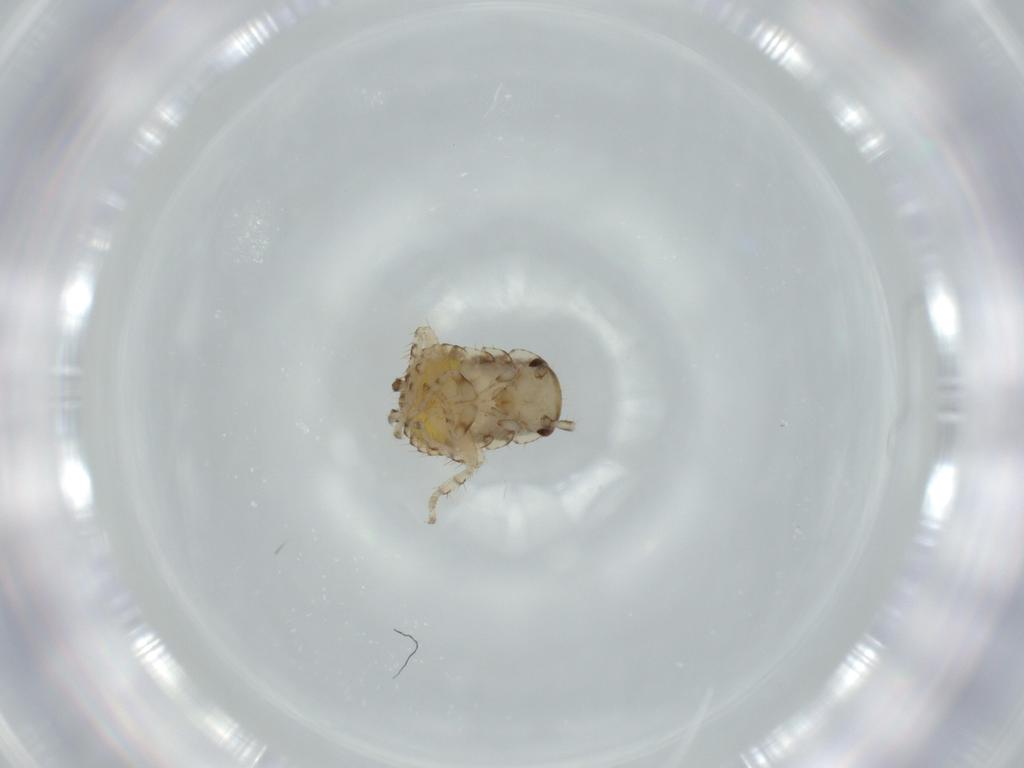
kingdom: Animalia
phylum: Arthropoda
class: Insecta
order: Blattodea
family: Ectobiidae
